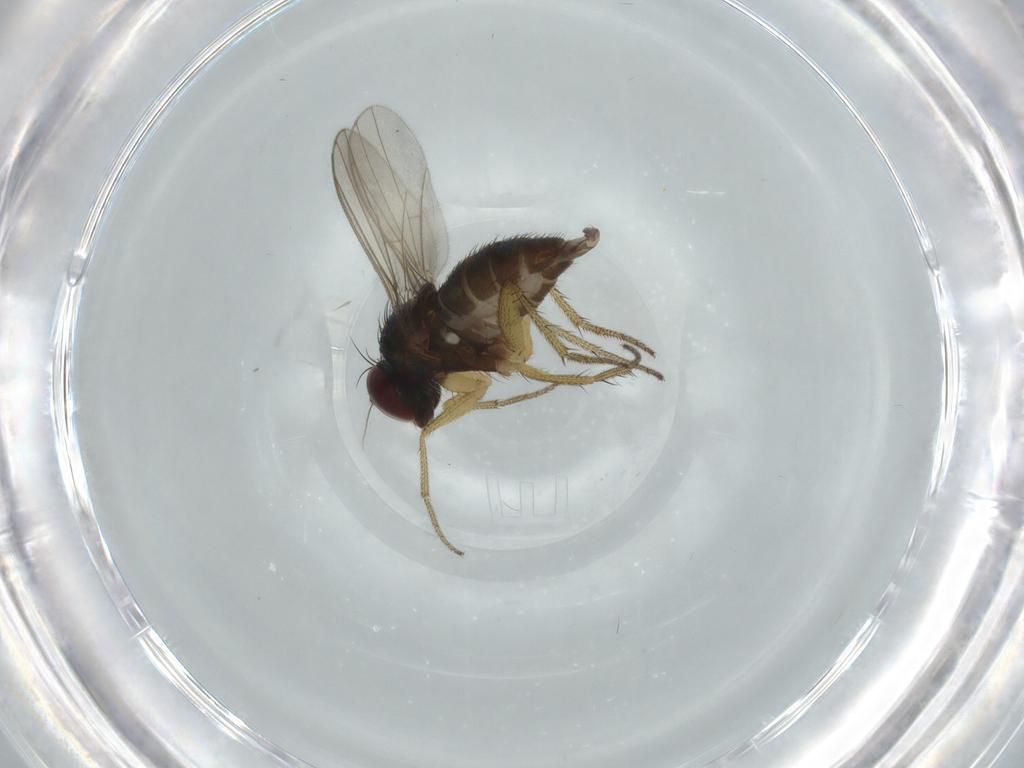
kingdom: Animalia
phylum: Arthropoda
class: Insecta
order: Diptera
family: Dolichopodidae
